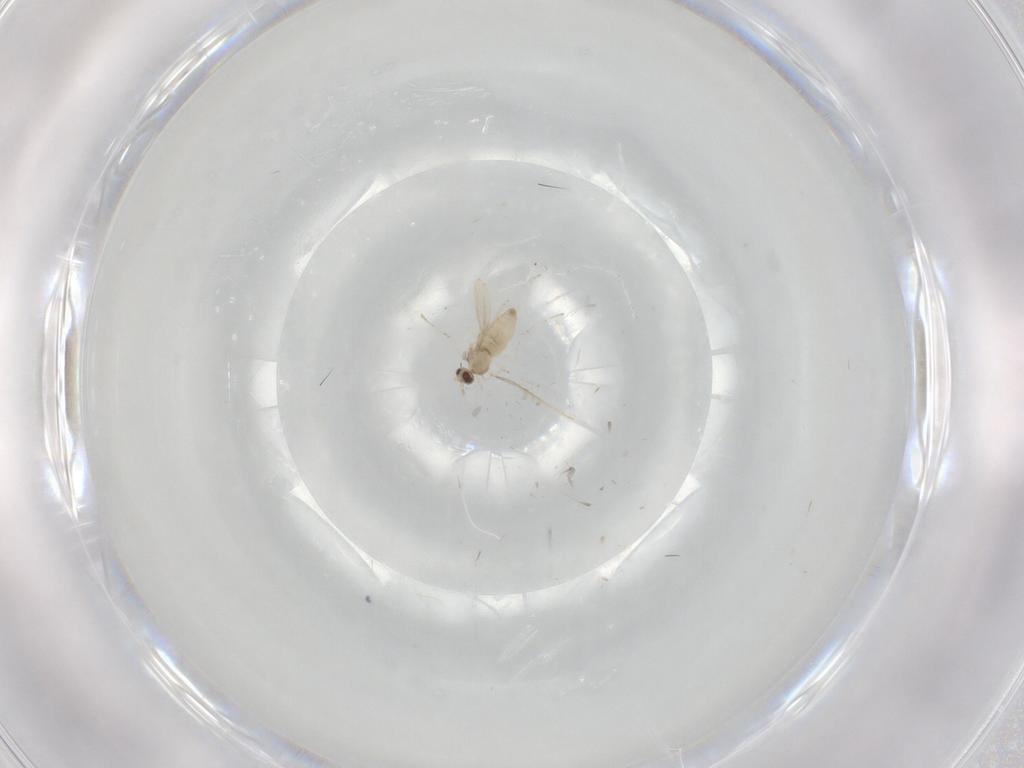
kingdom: Animalia
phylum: Arthropoda
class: Insecta
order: Diptera
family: Cecidomyiidae
